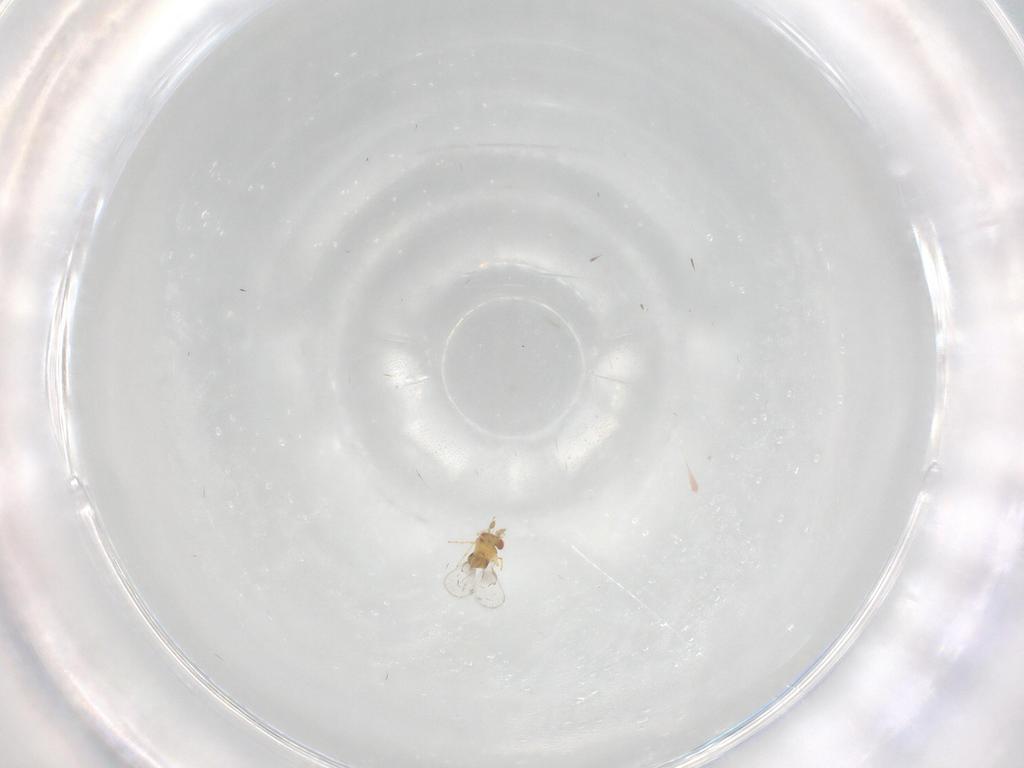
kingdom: Animalia
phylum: Arthropoda
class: Insecta
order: Hymenoptera
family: Trichogrammatidae
